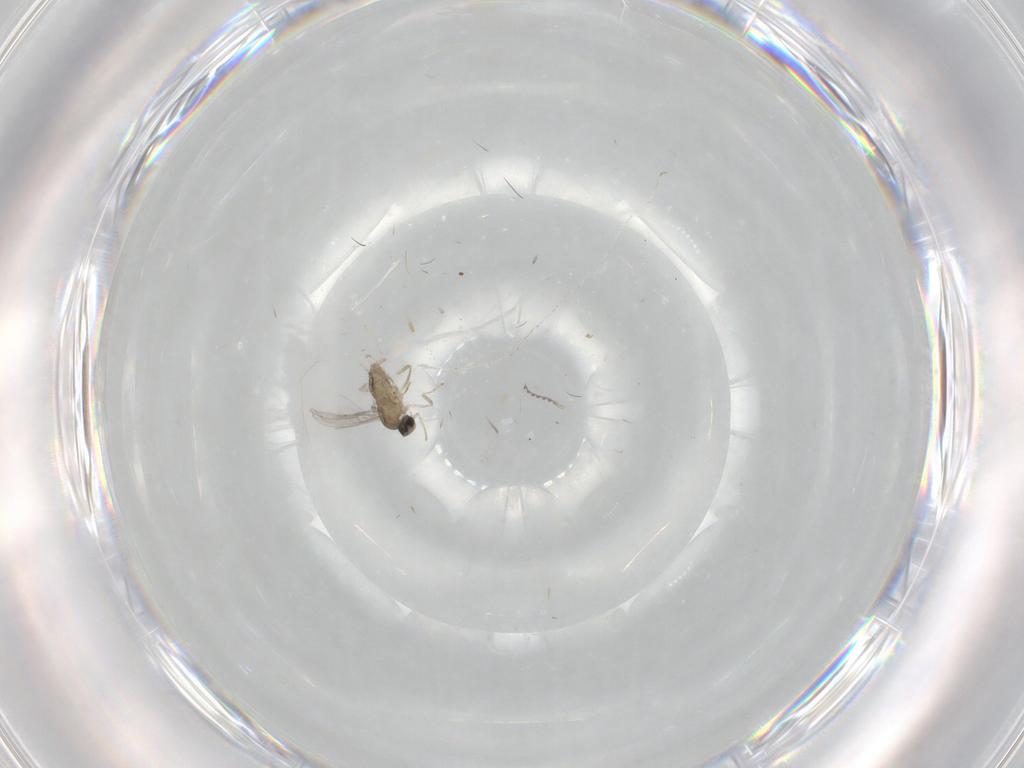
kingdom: Animalia
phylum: Arthropoda
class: Insecta
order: Diptera
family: Cecidomyiidae
